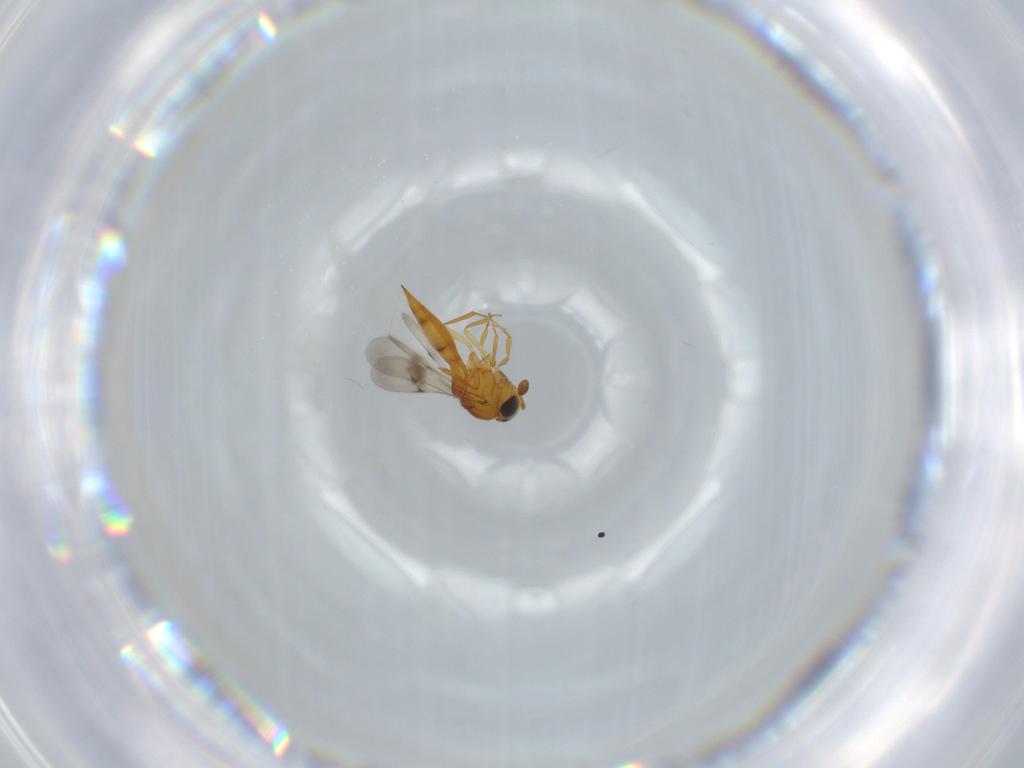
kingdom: Animalia
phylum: Arthropoda
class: Insecta
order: Hymenoptera
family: Scelionidae
